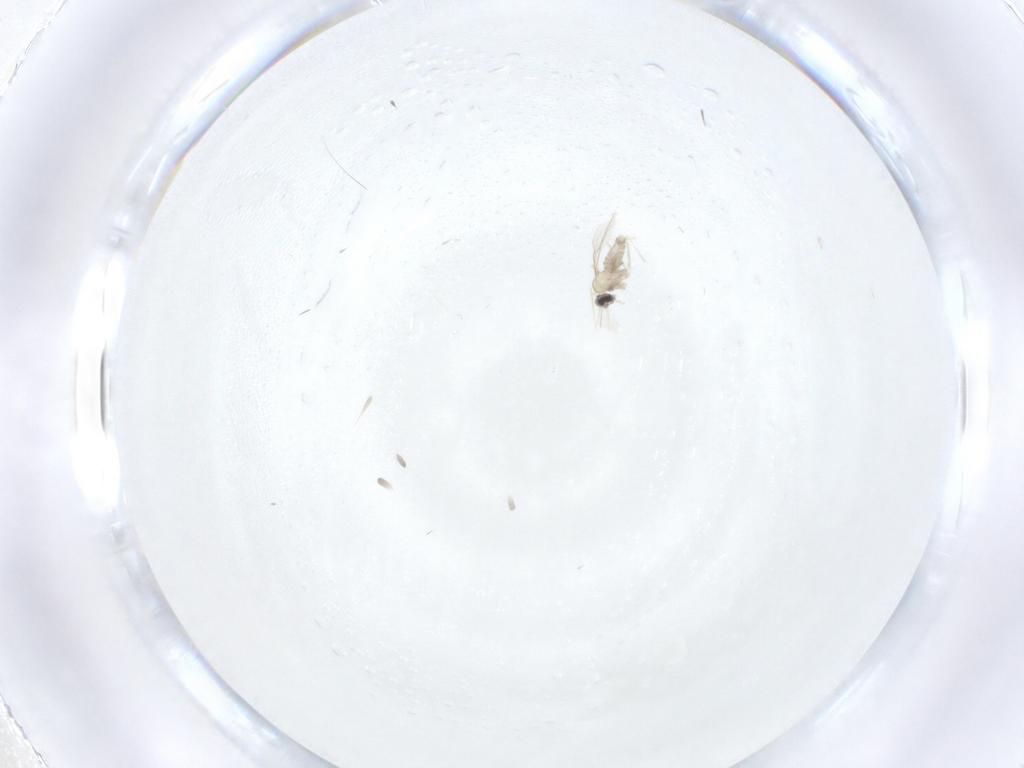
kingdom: Animalia
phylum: Arthropoda
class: Insecta
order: Diptera
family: Cecidomyiidae
